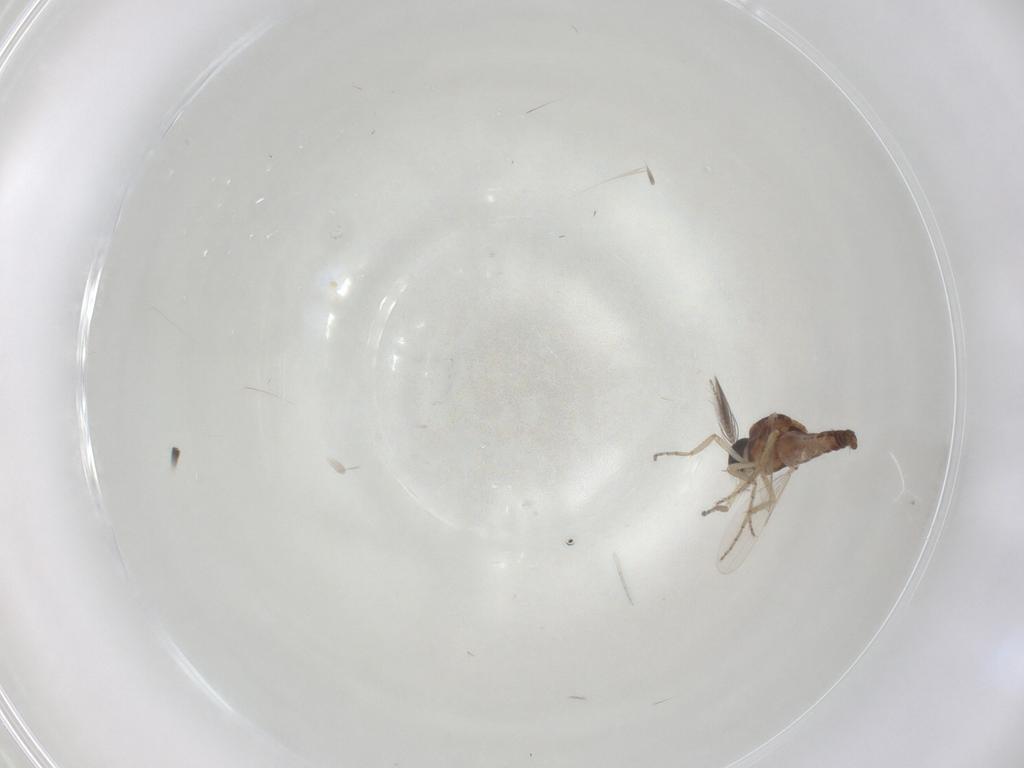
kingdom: Animalia
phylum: Arthropoda
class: Insecta
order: Diptera
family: Ceratopogonidae
